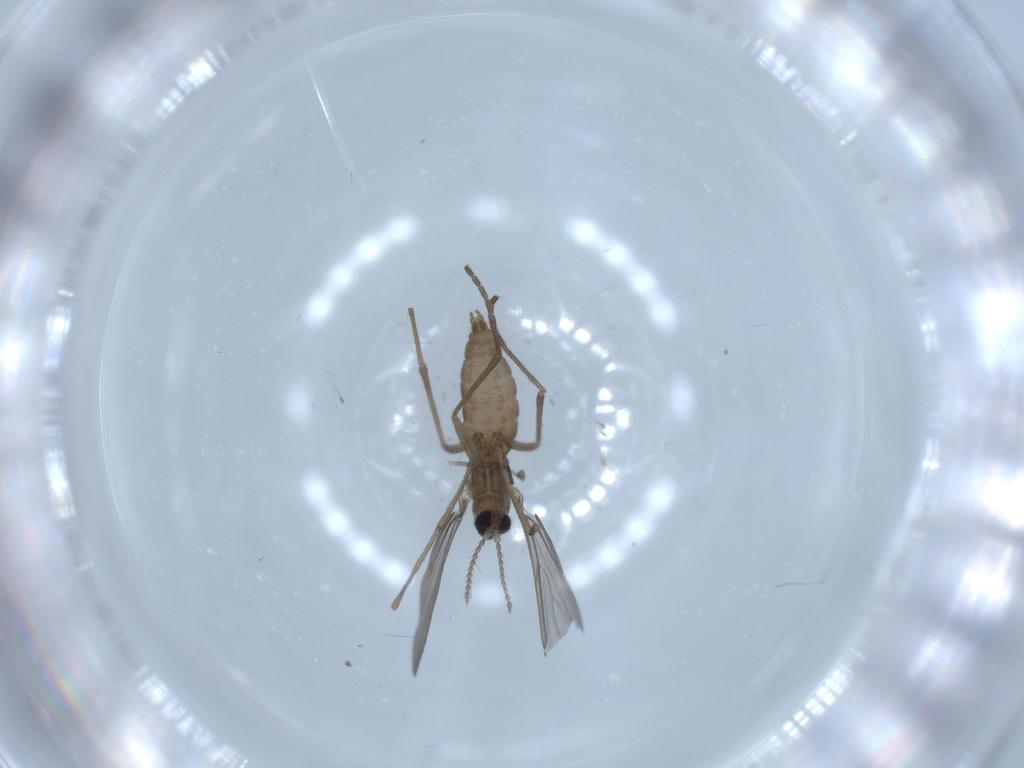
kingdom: Animalia
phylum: Arthropoda
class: Insecta
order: Diptera
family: Chironomidae
